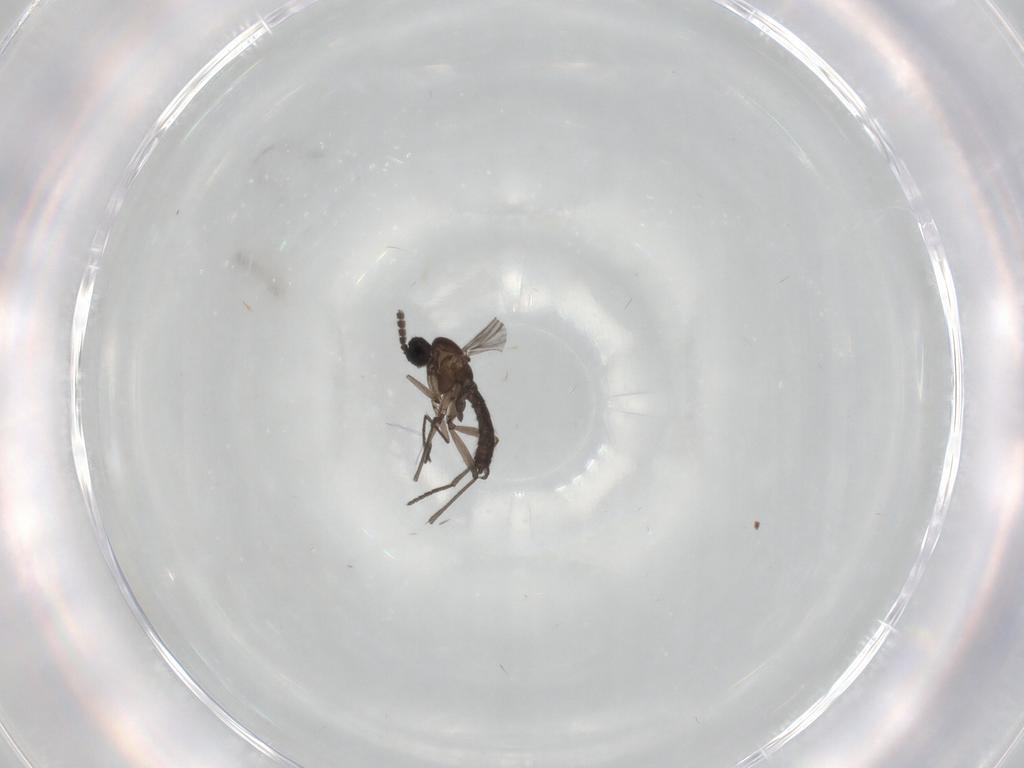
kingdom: Animalia
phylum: Arthropoda
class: Insecta
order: Diptera
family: Sciaridae
